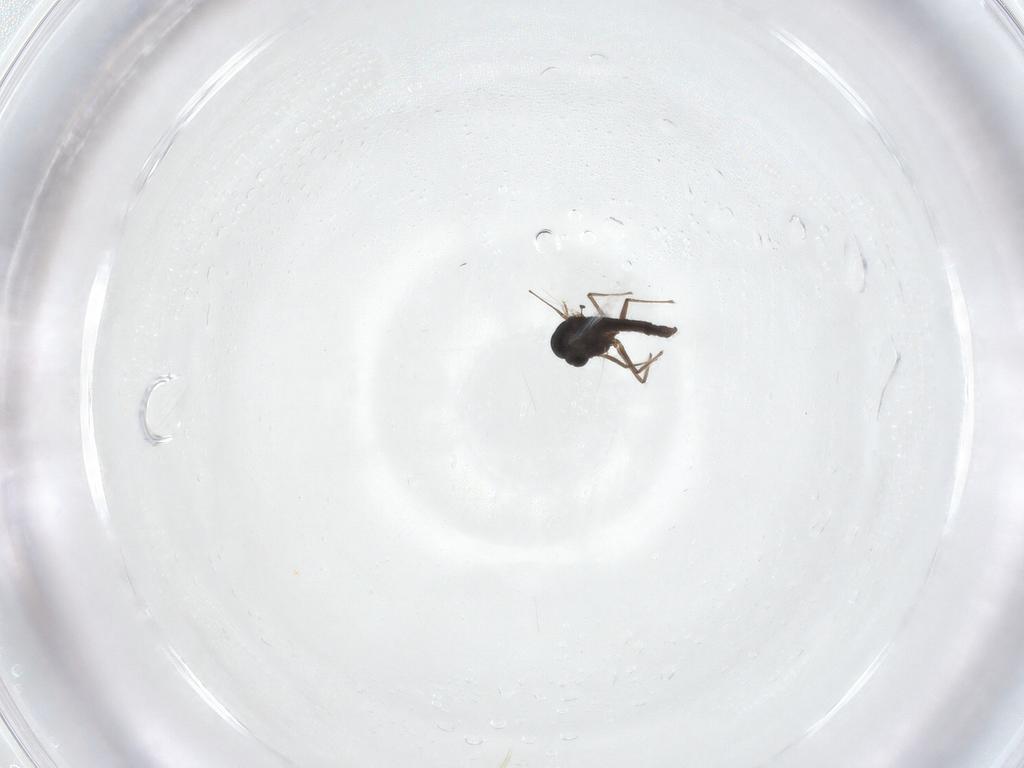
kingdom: Animalia
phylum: Arthropoda
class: Insecta
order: Diptera
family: Chironomidae
